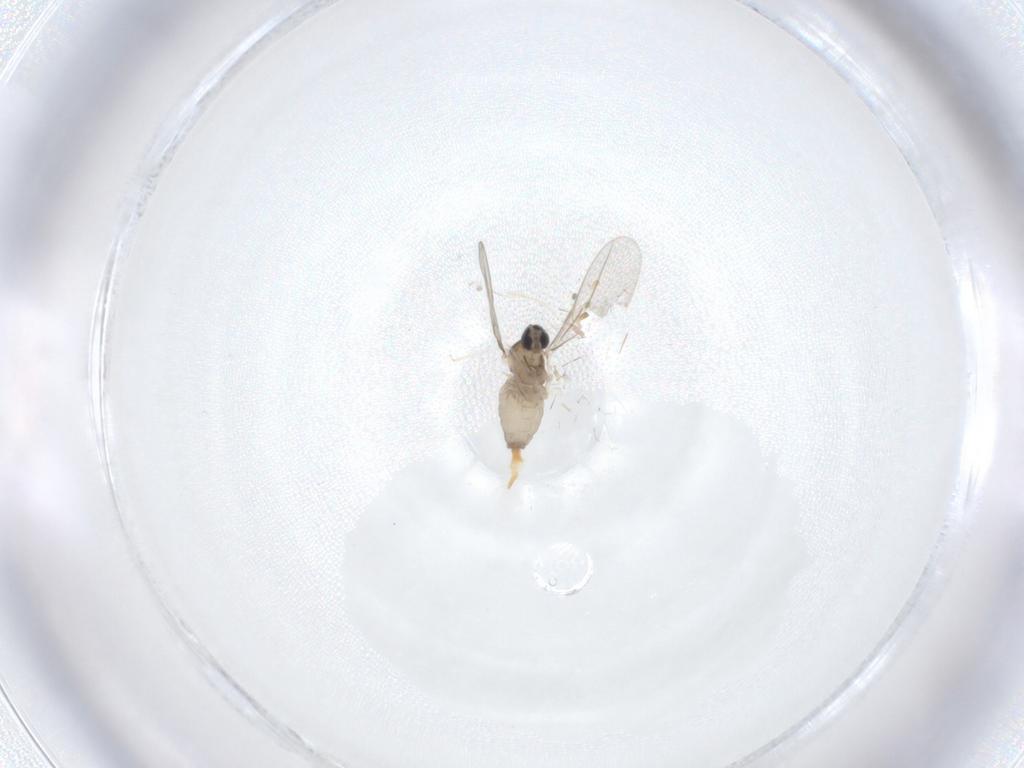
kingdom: Animalia
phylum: Arthropoda
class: Insecta
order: Diptera
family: Cecidomyiidae
